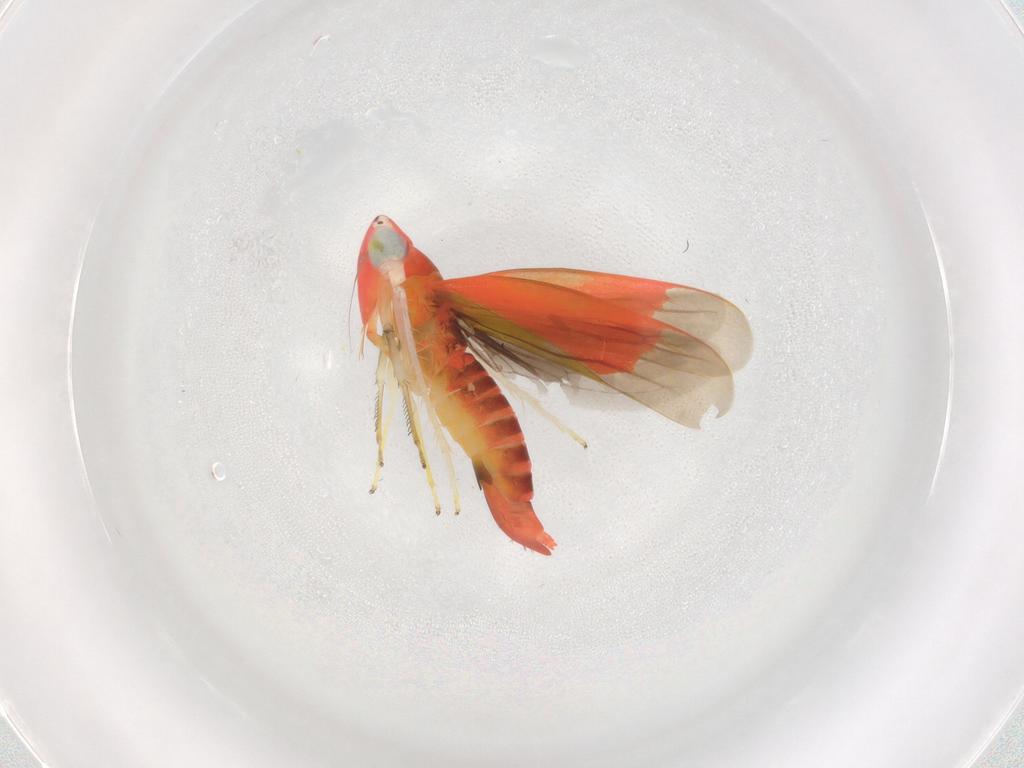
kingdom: Animalia
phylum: Arthropoda
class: Insecta
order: Hemiptera
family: Cicadellidae
